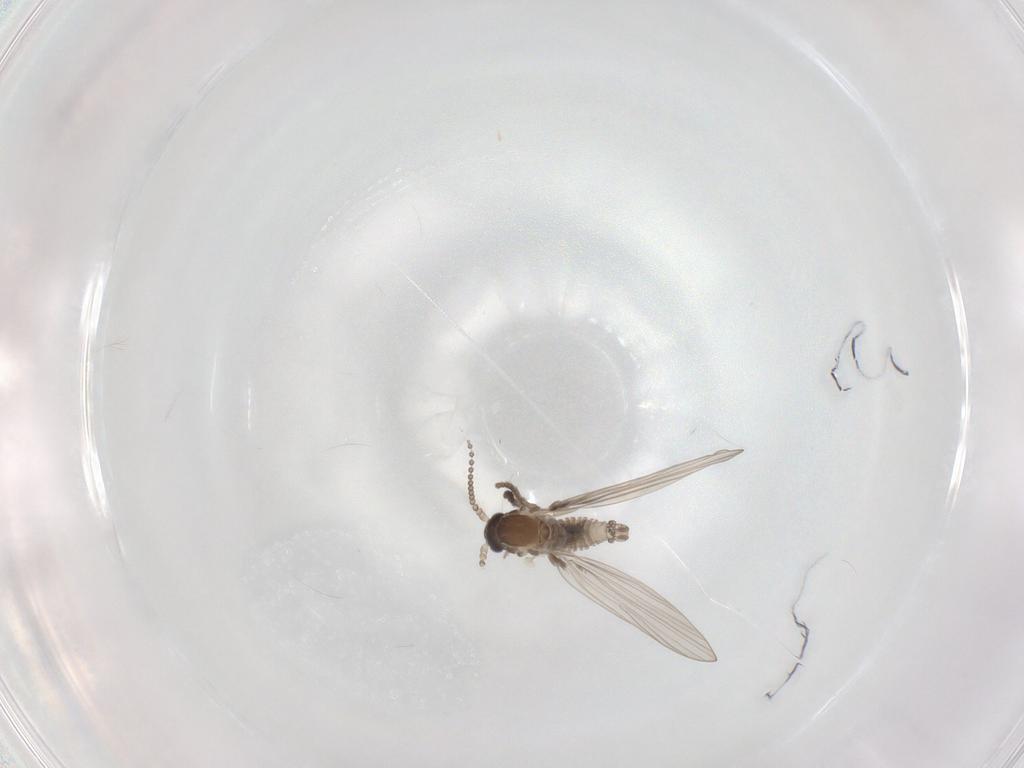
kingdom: Animalia
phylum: Arthropoda
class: Insecta
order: Diptera
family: Psychodidae
